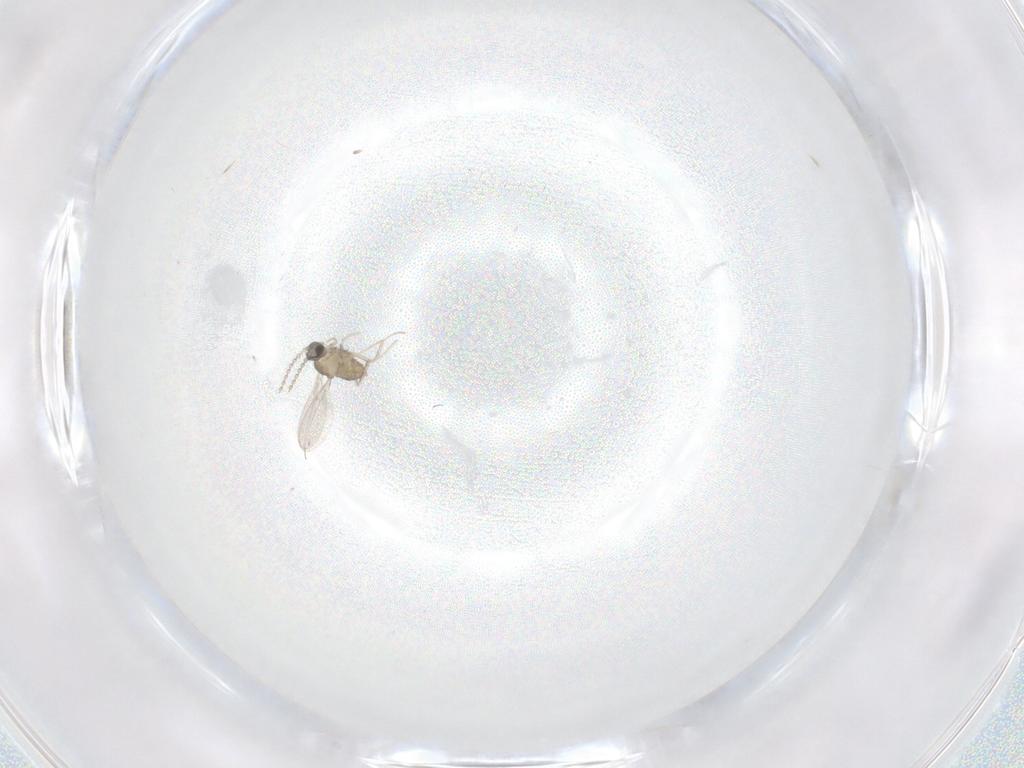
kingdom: Animalia
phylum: Arthropoda
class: Insecta
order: Diptera
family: Cecidomyiidae
